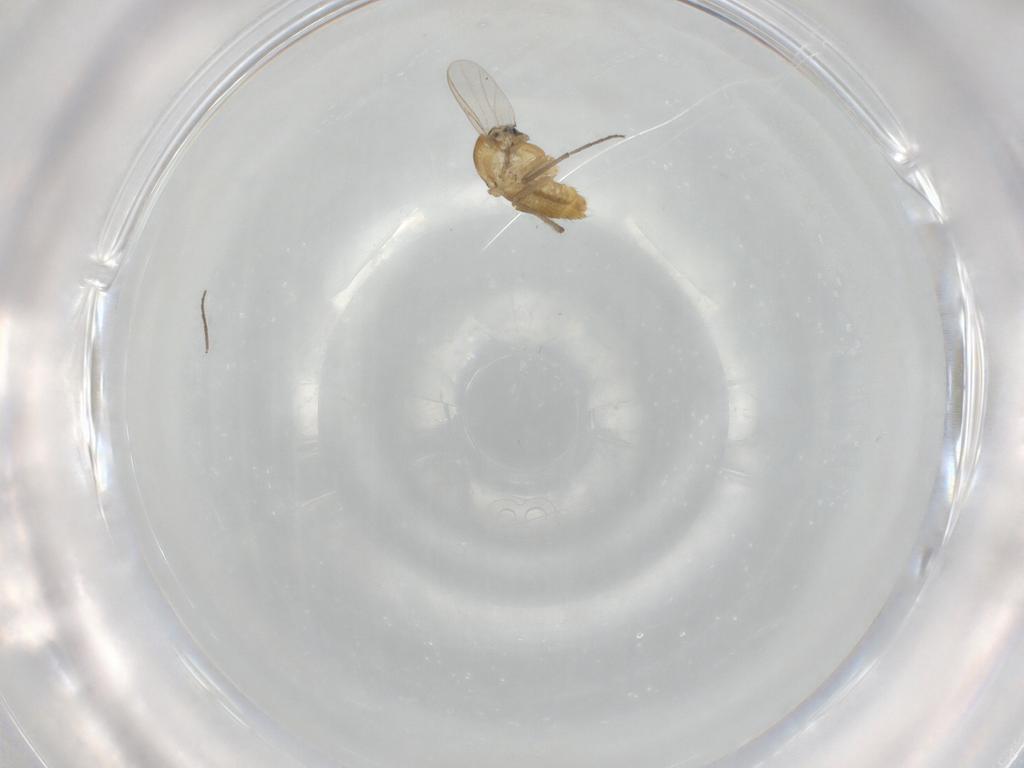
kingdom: Animalia
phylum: Arthropoda
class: Insecta
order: Diptera
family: Chironomidae
